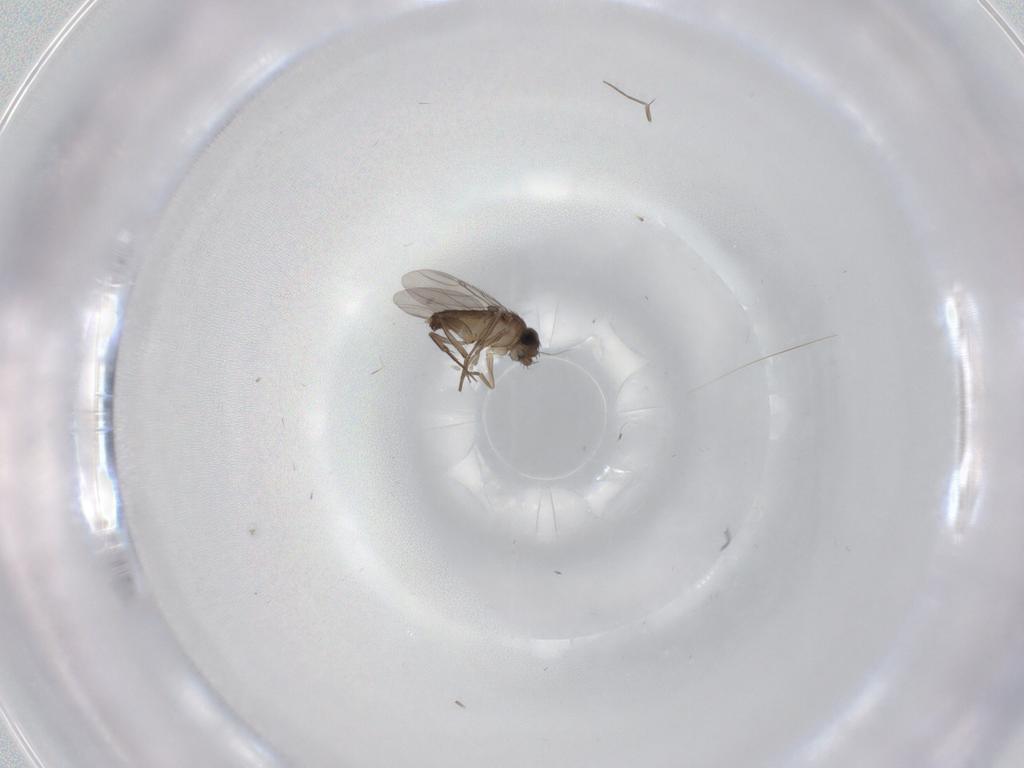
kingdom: Animalia
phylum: Arthropoda
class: Insecta
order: Diptera
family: Phoridae
